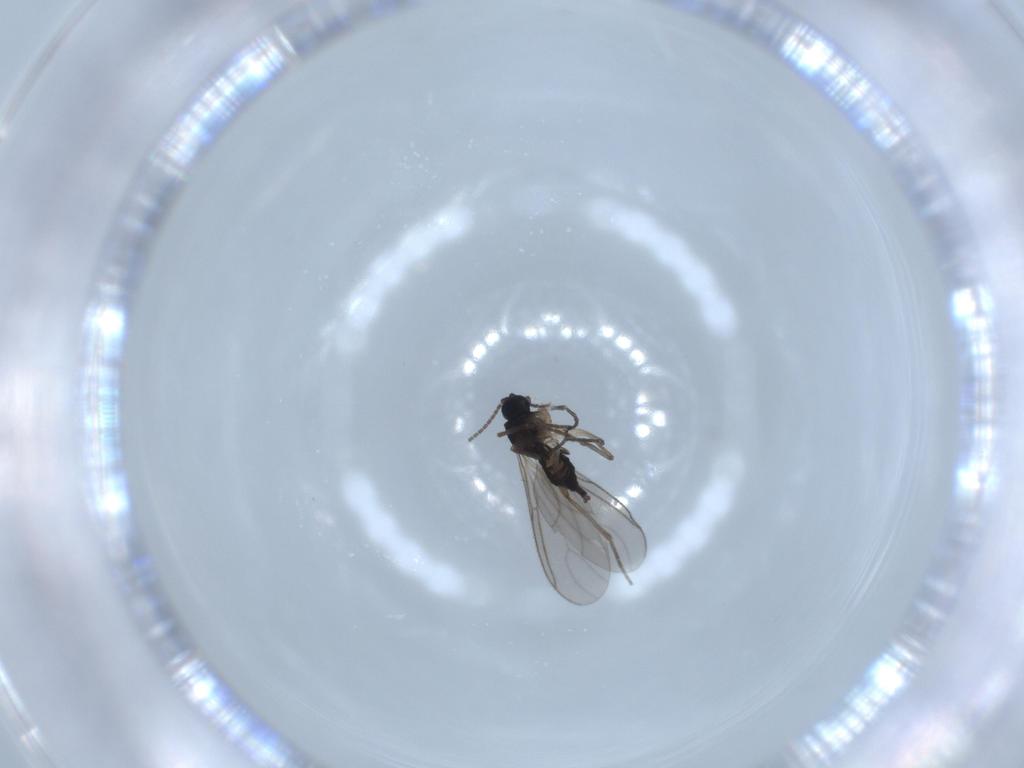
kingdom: Animalia
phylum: Arthropoda
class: Insecta
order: Diptera
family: Sciaridae
